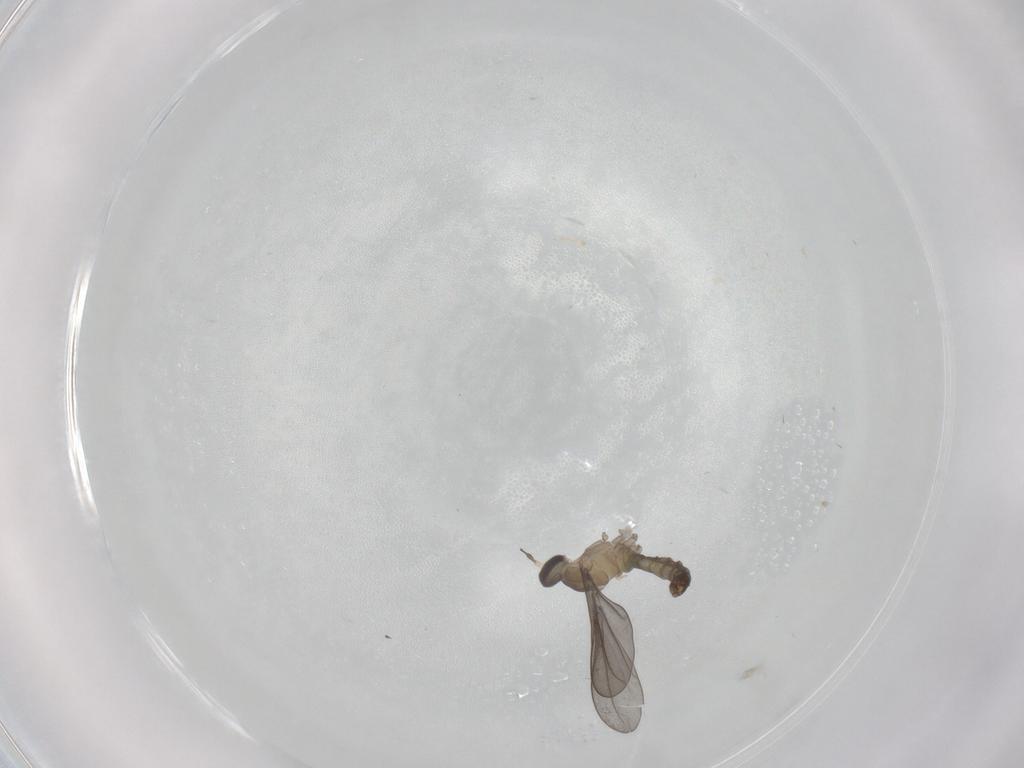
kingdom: Animalia
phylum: Arthropoda
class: Insecta
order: Diptera
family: Cecidomyiidae
